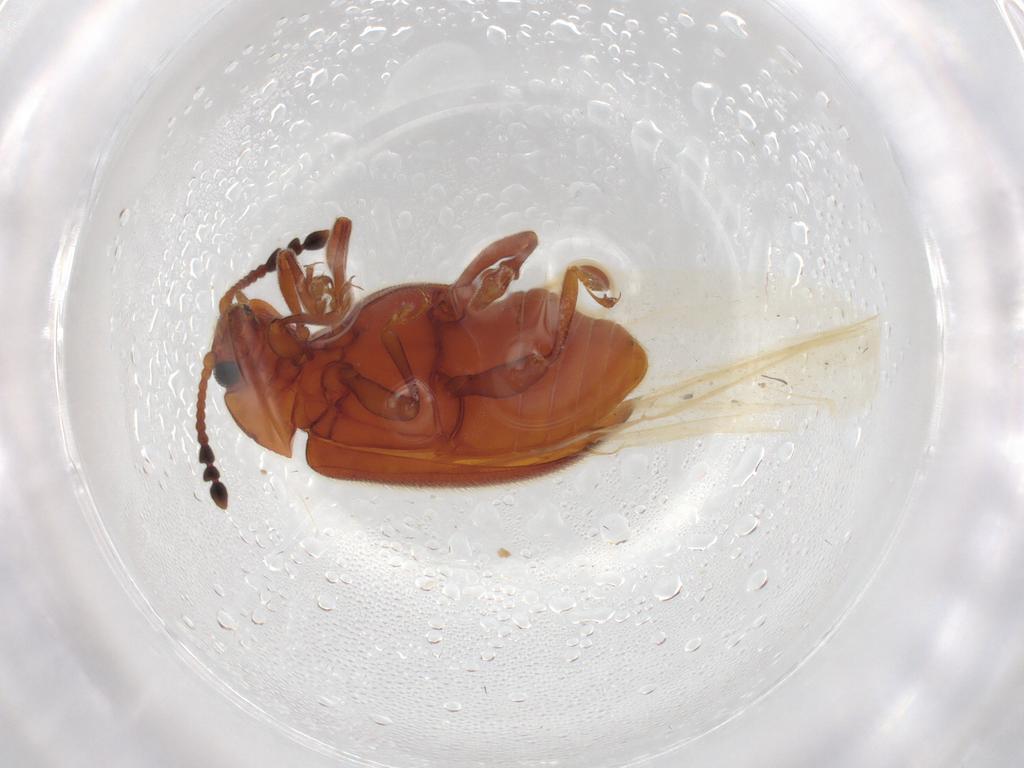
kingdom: Animalia
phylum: Arthropoda
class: Insecta
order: Coleoptera
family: Endomychidae
